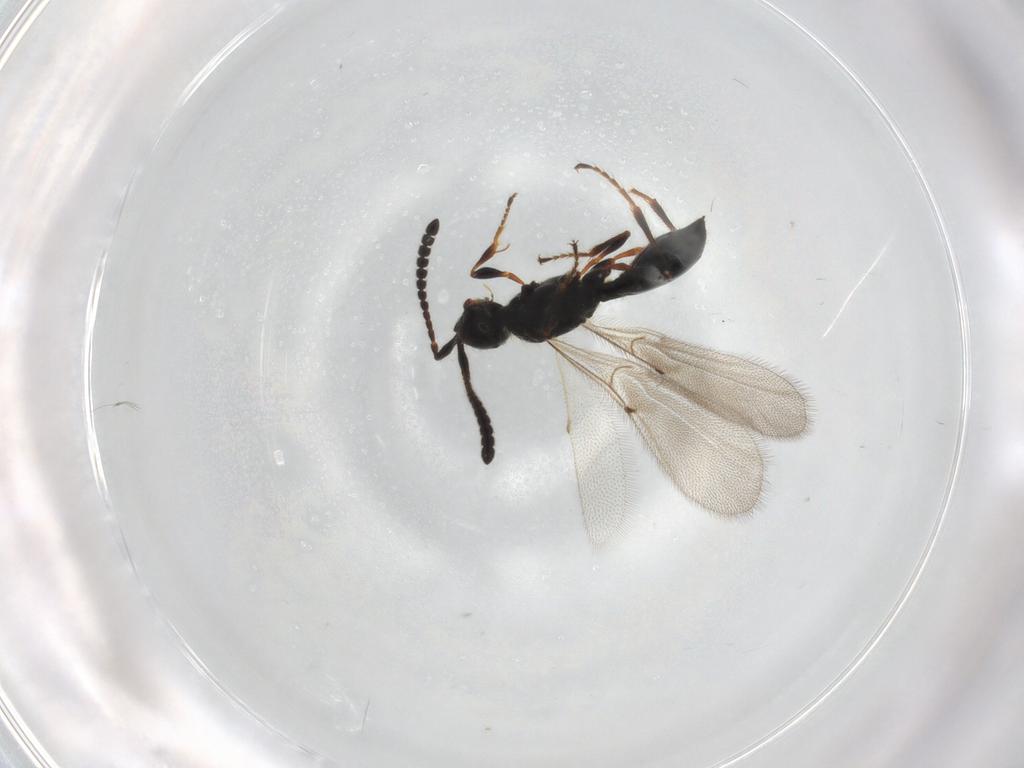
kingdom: Animalia
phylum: Arthropoda
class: Insecta
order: Hymenoptera
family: Diapriidae
